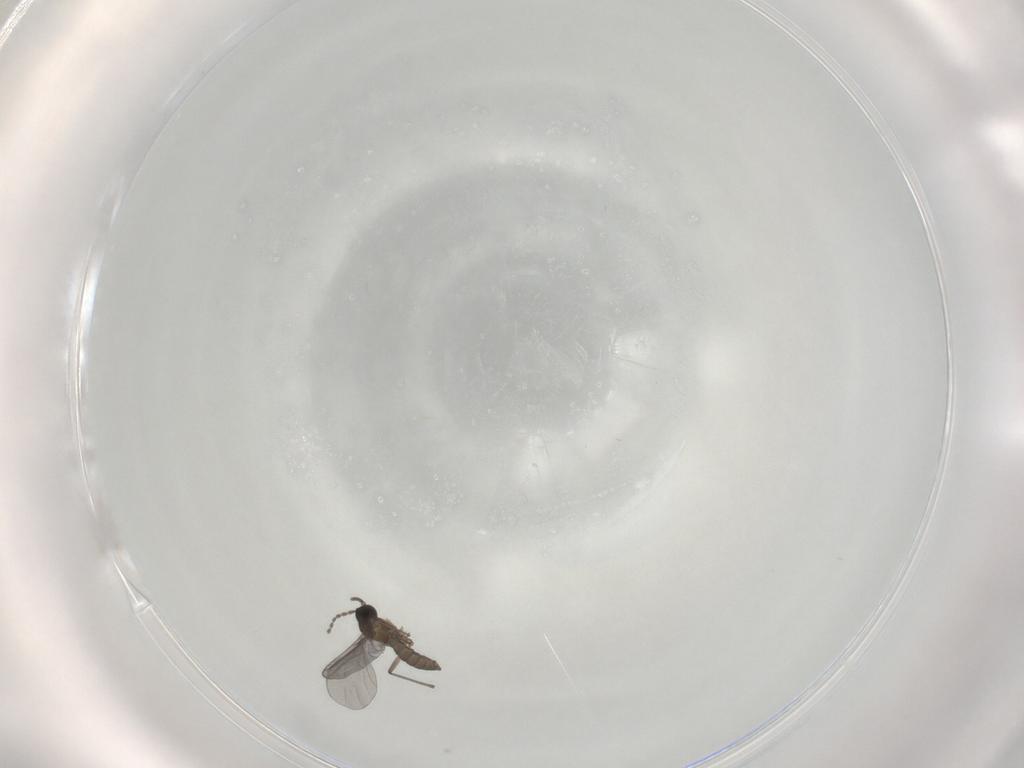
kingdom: Animalia
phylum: Arthropoda
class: Insecta
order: Diptera
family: Sciaridae
